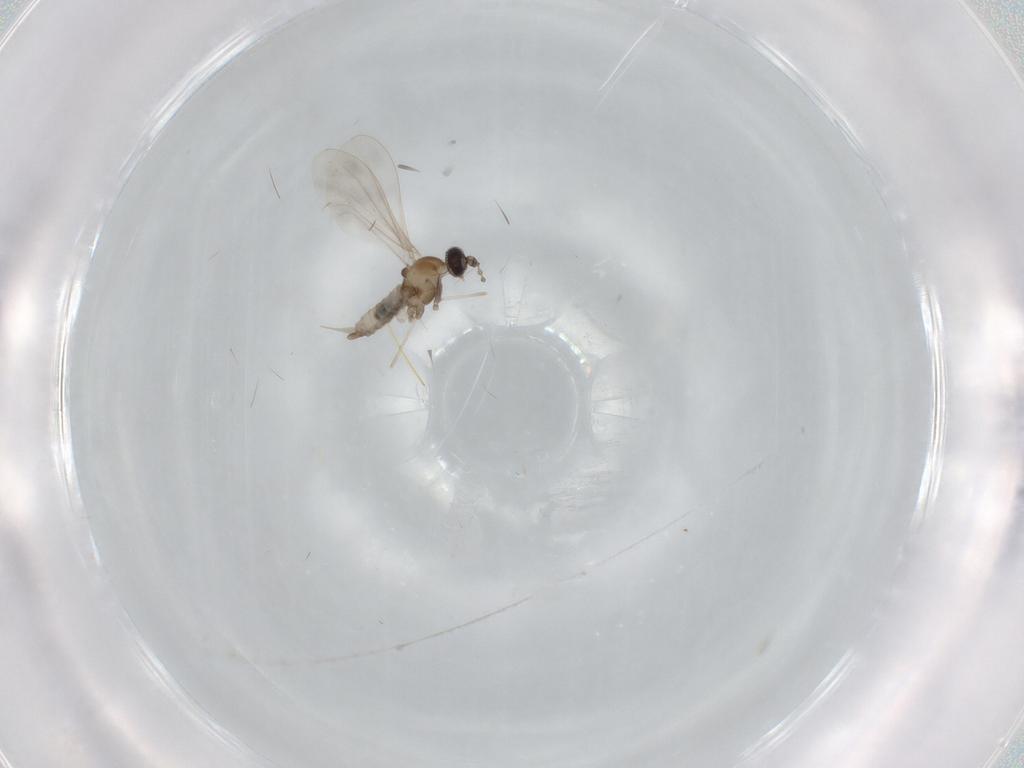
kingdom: Animalia
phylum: Arthropoda
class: Insecta
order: Diptera
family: Cecidomyiidae
